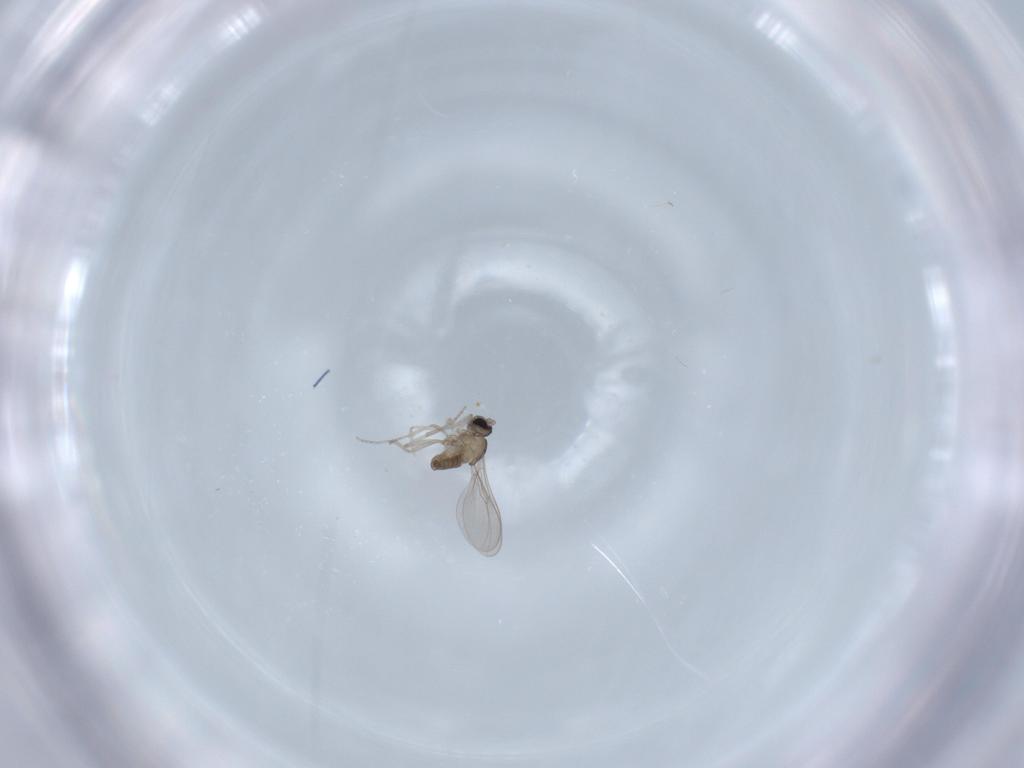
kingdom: Animalia
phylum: Arthropoda
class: Insecta
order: Diptera
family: Cecidomyiidae
